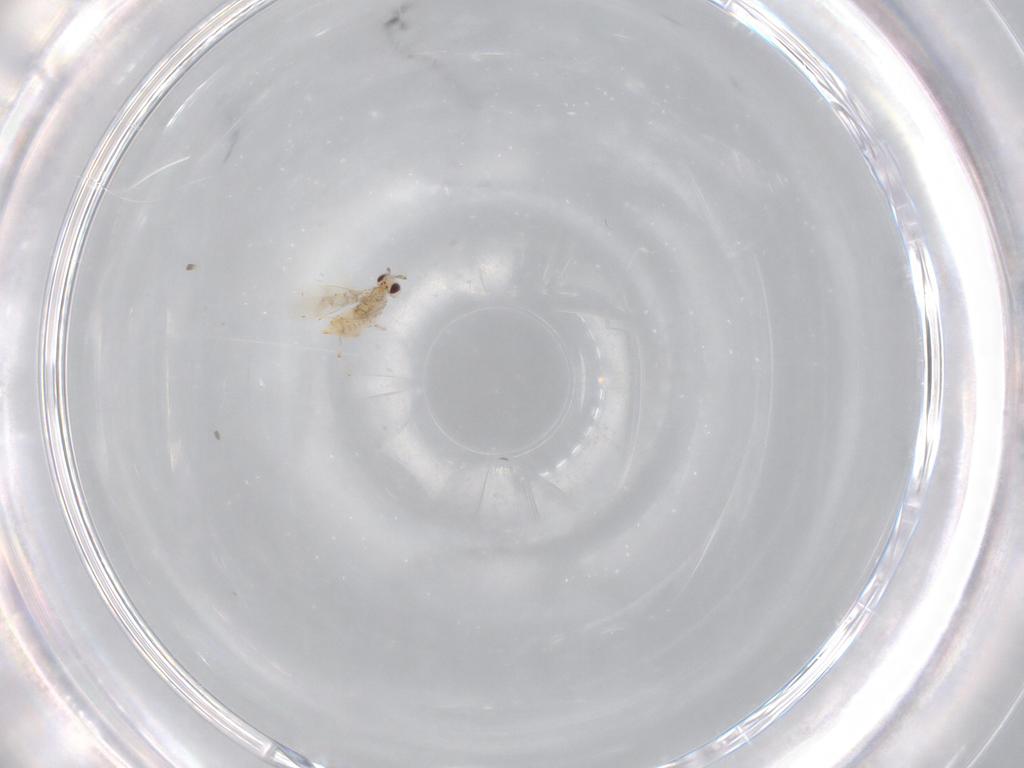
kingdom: Animalia
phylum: Arthropoda
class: Insecta
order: Hymenoptera
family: Aphelinidae
